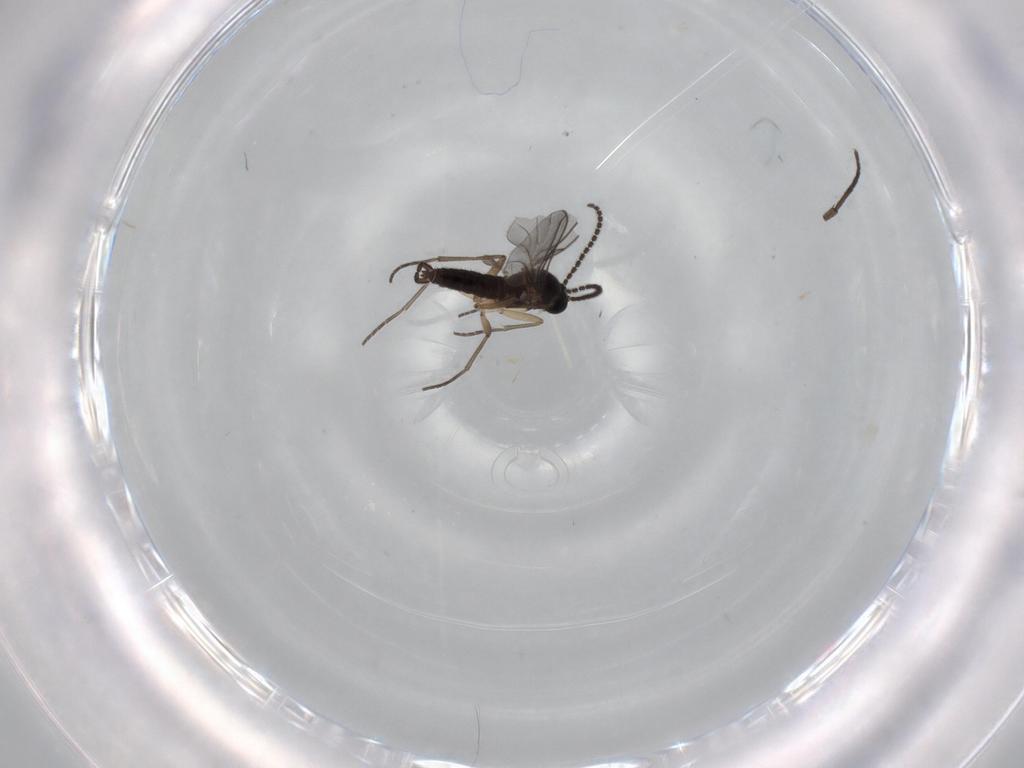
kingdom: Animalia
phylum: Arthropoda
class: Insecta
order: Diptera
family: Sciaridae
